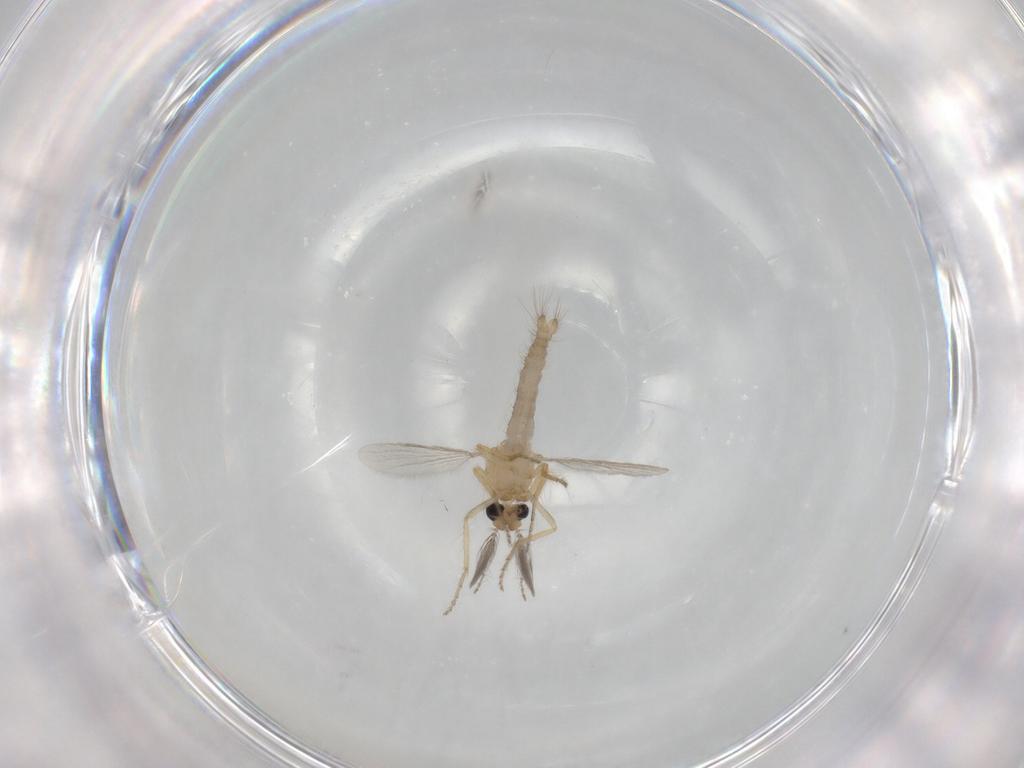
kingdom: Animalia
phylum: Arthropoda
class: Insecta
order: Diptera
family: Ceratopogonidae
